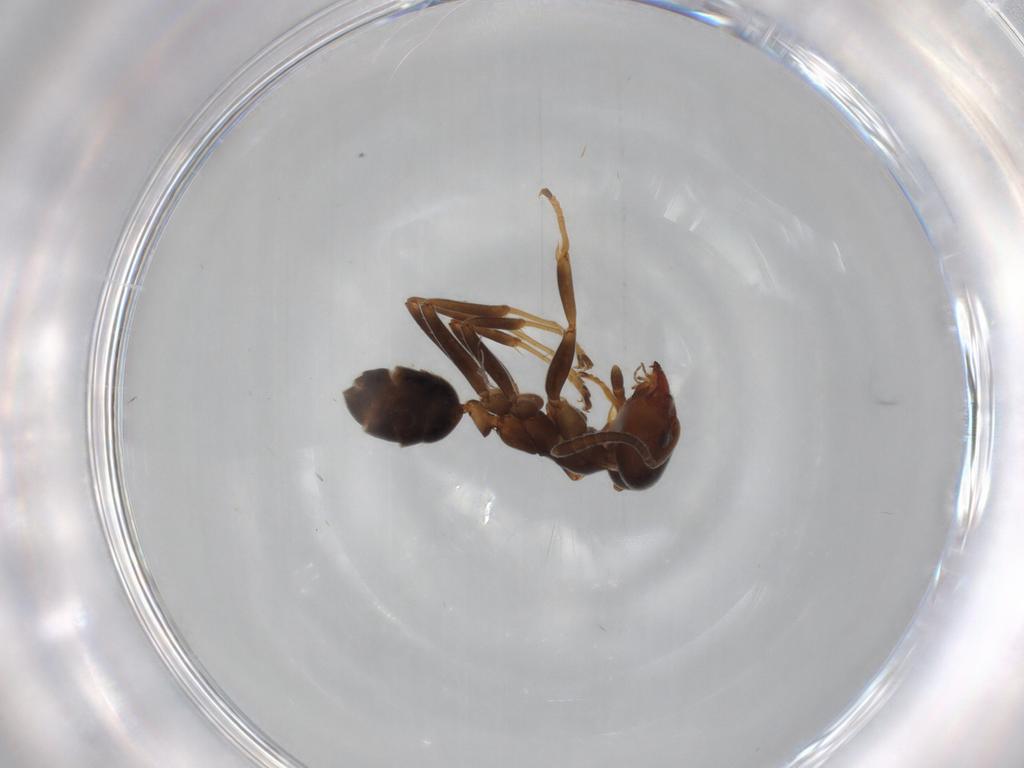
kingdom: Animalia
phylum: Arthropoda
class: Insecta
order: Hymenoptera
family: Formicidae
